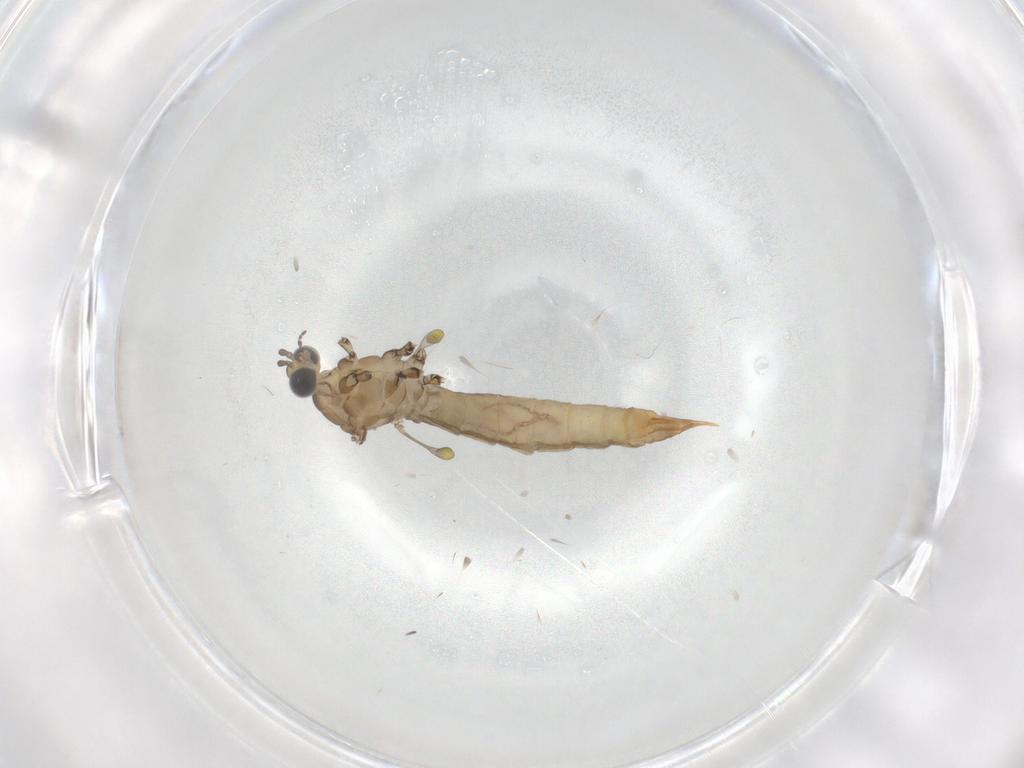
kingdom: Animalia
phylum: Arthropoda
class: Insecta
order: Diptera
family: Limoniidae
